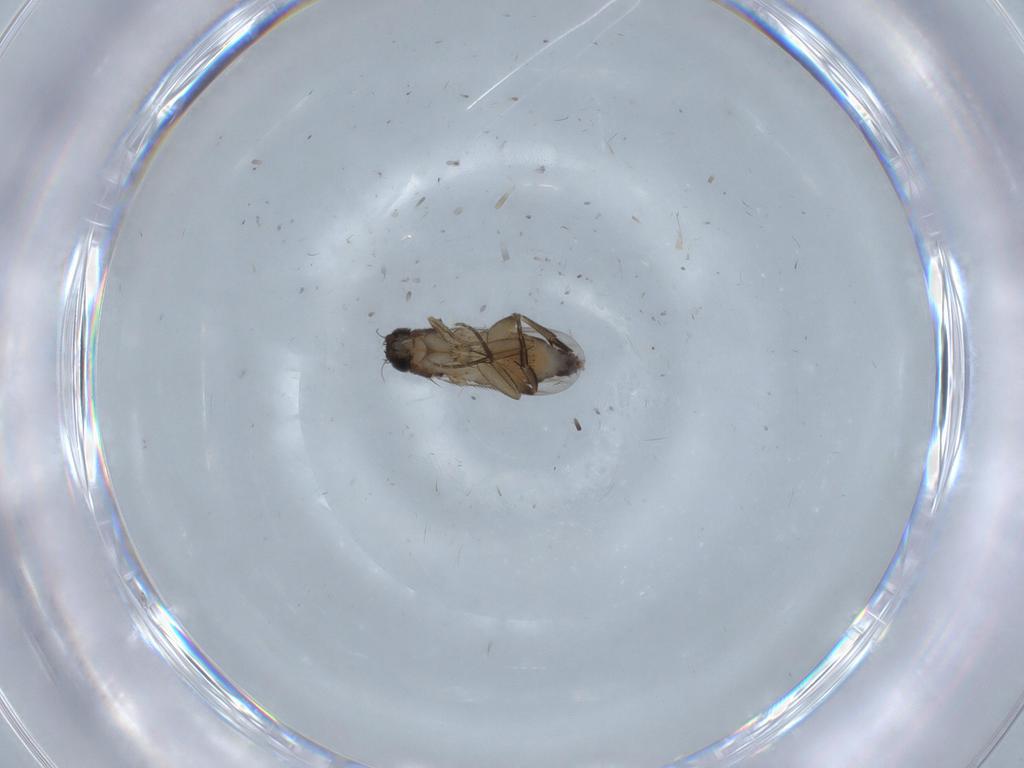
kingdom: Animalia
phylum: Arthropoda
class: Insecta
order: Diptera
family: Phoridae
